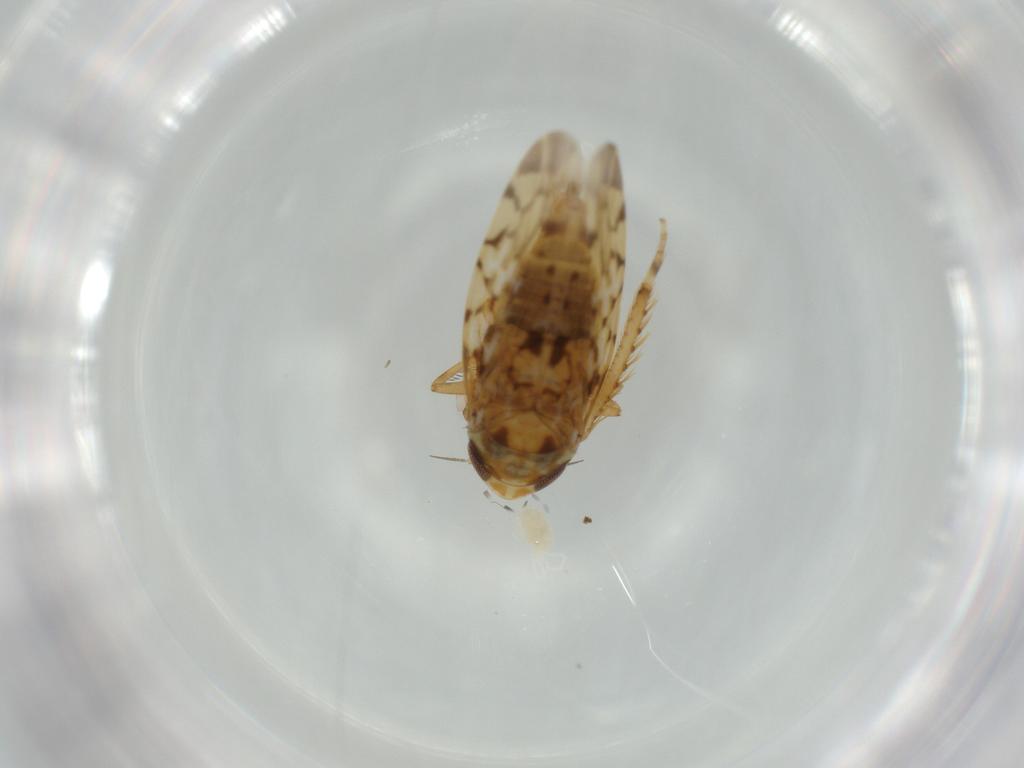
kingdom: Animalia
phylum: Arthropoda
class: Insecta
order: Hemiptera
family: Cicadellidae
